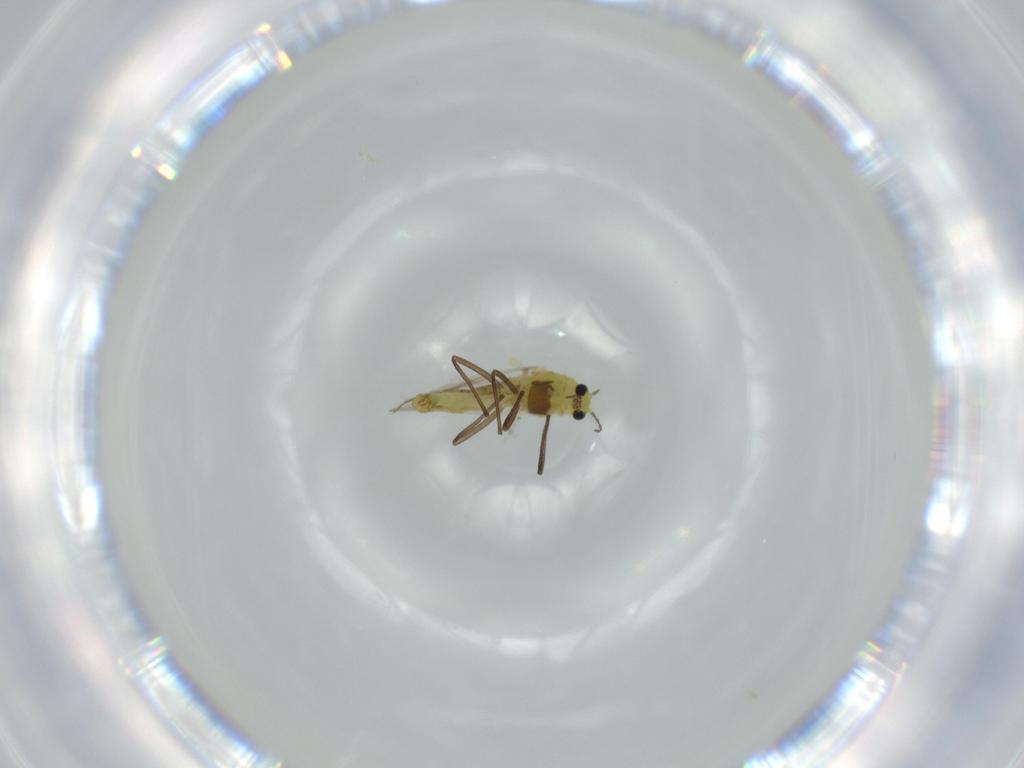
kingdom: Animalia
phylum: Arthropoda
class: Insecta
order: Diptera
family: Chironomidae
